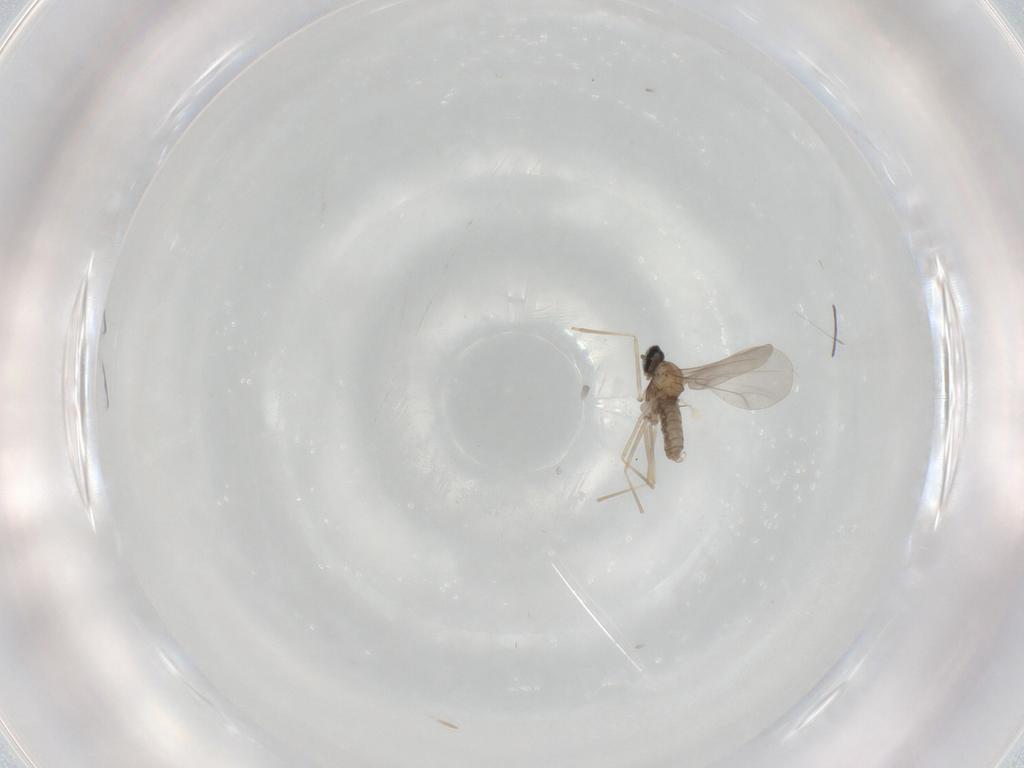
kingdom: Animalia
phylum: Arthropoda
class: Insecta
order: Diptera
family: Cecidomyiidae
